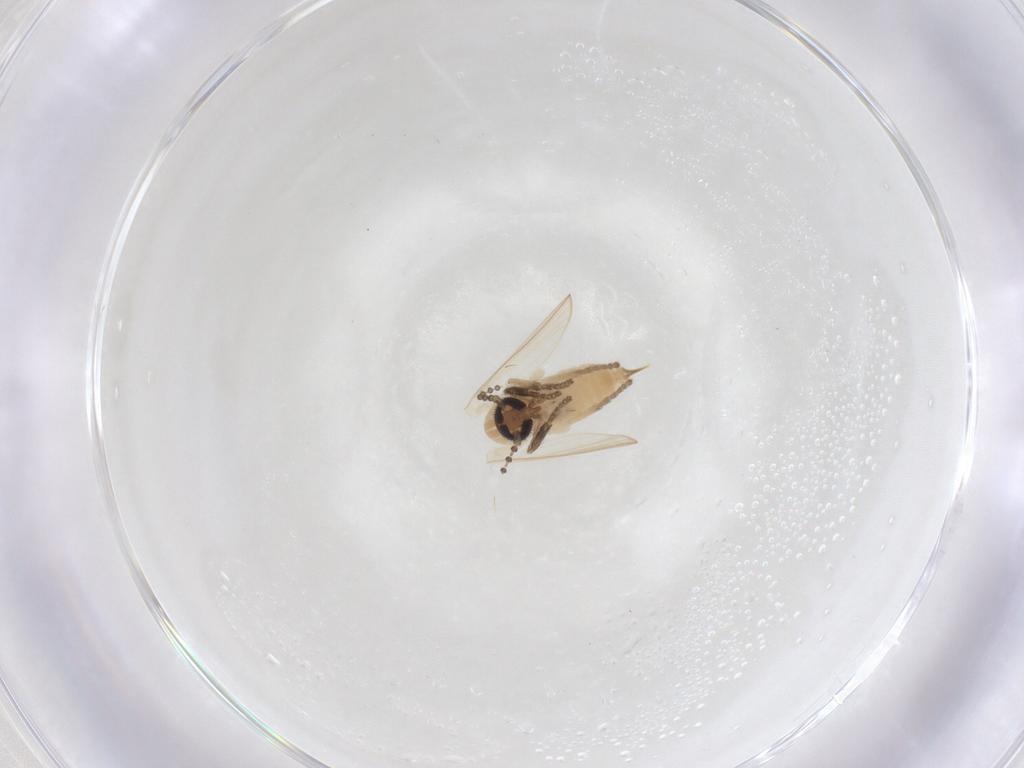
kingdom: Animalia
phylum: Arthropoda
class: Insecta
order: Diptera
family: Psychodidae
